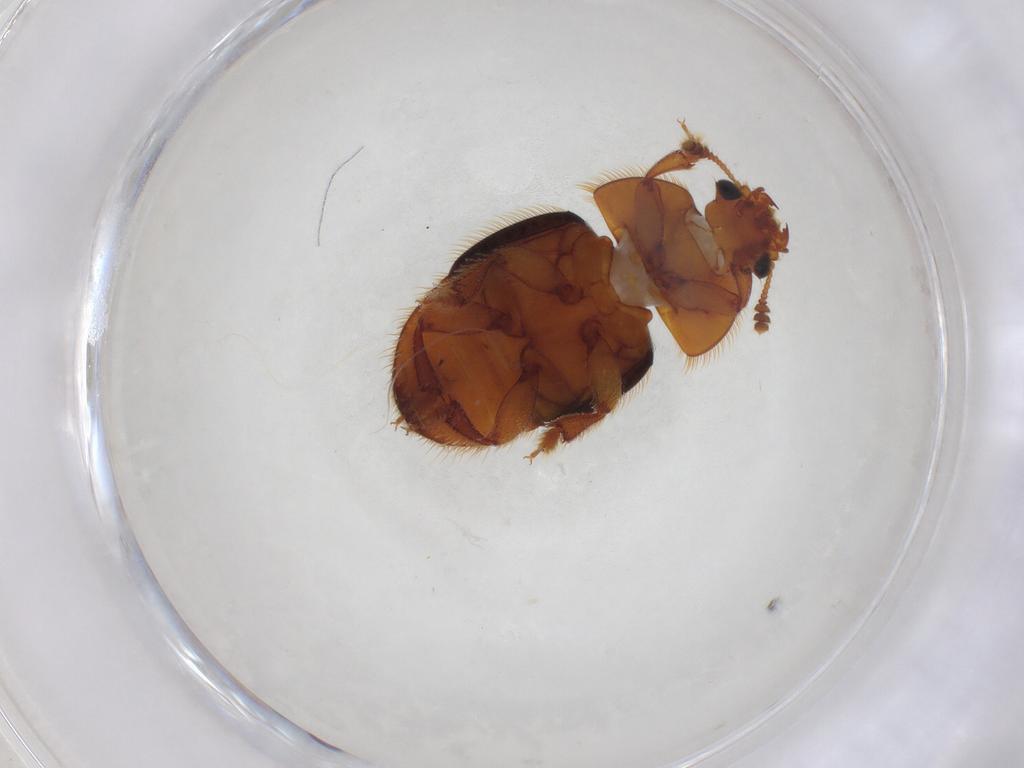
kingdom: Animalia
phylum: Arthropoda
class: Insecta
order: Coleoptera
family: Nitidulidae
